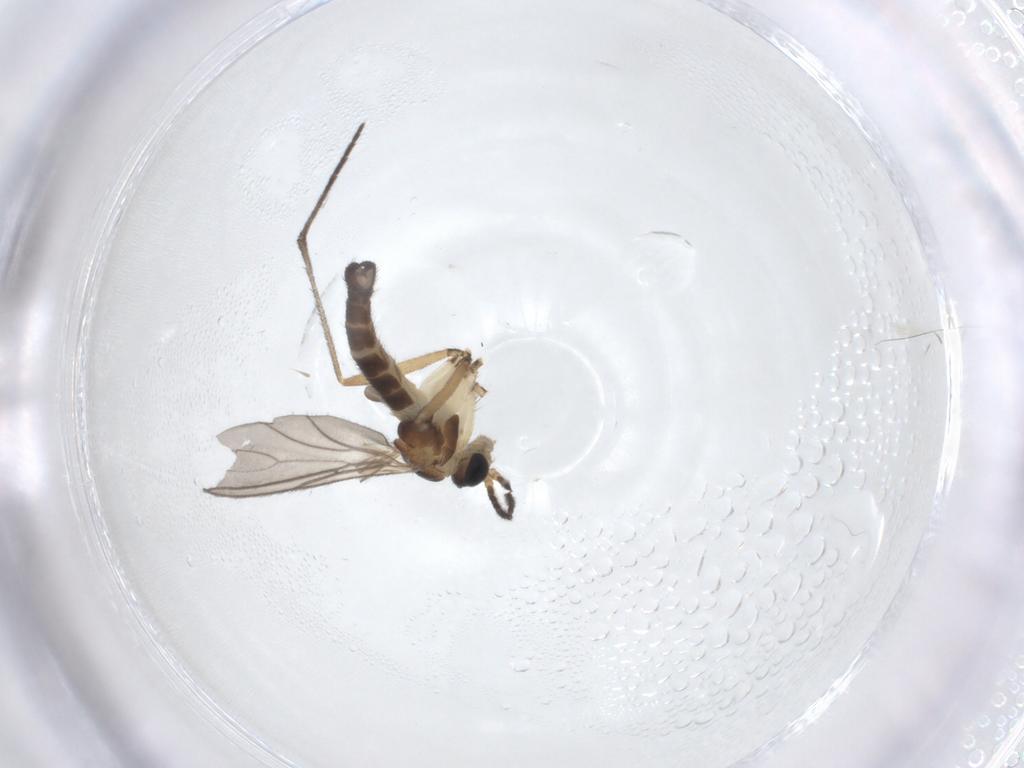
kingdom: Animalia
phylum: Arthropoda
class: Insecta
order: Diptera
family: Sciaridae
